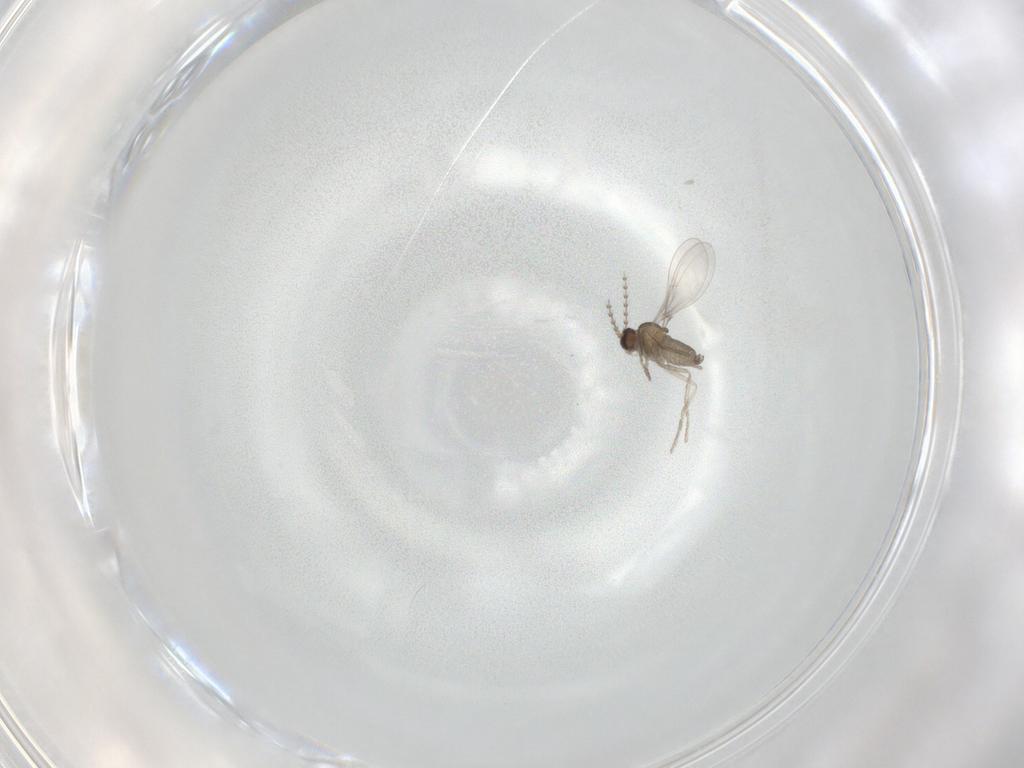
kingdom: Animalia
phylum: Arthropoda
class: Insecta
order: Diptera
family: Cecidomyiidae
